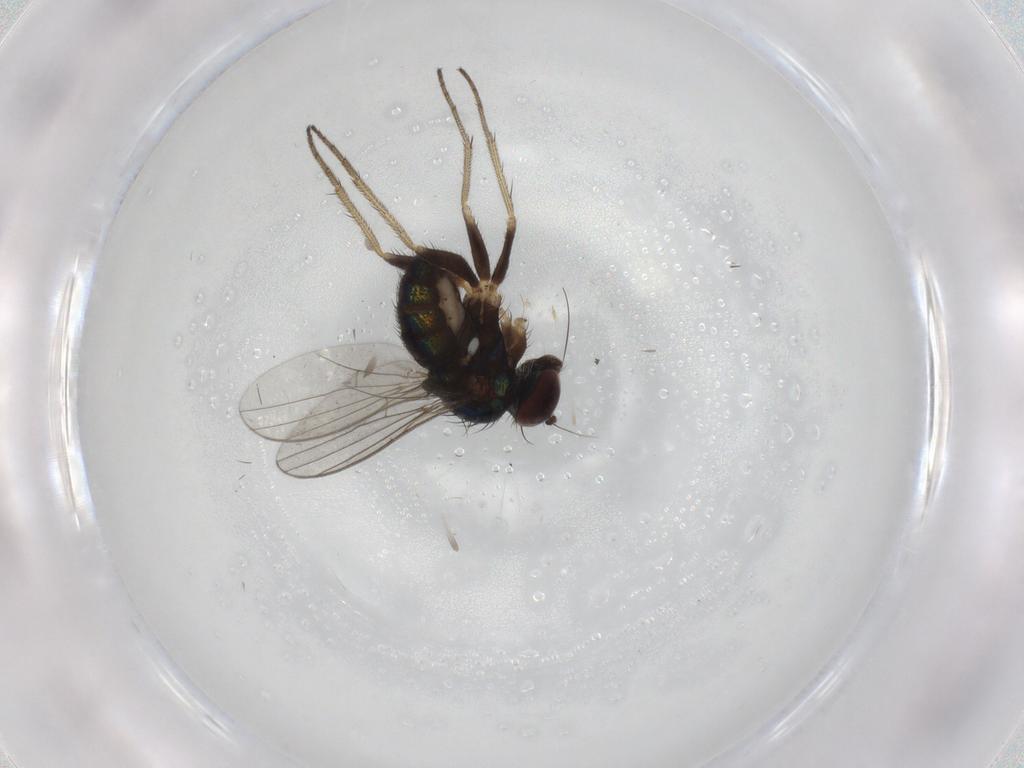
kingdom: Animalia
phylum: Arthropoda
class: Insecta
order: Diptera
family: Dolichopodidae
